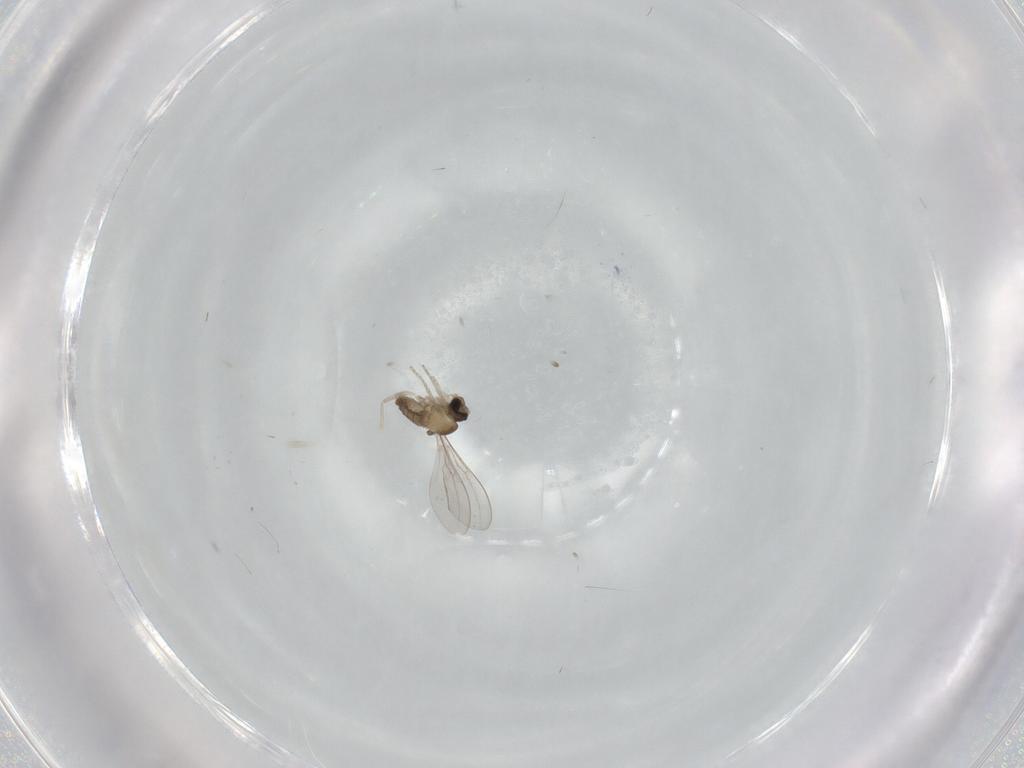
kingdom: Animalia
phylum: Arthropoda
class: Insecta
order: Diptera
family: Cecidomyiidae
